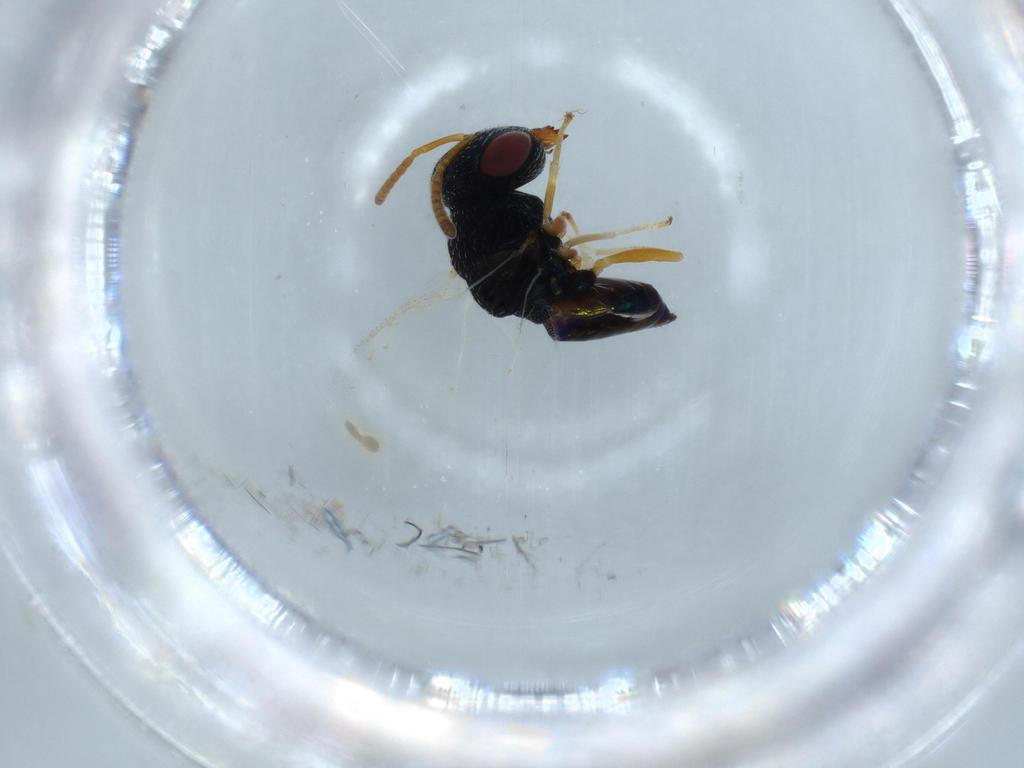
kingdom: Animalia
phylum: Arthropoda
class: Insecta
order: Hymenoptera
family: Pteromalidae
